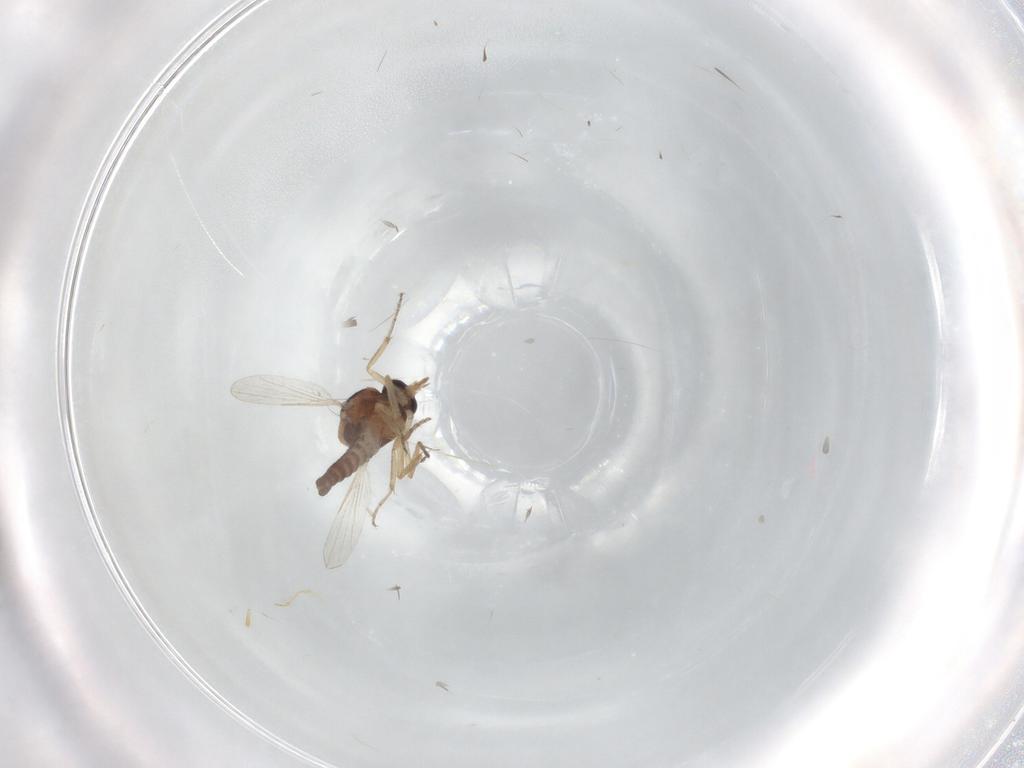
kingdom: Animalia
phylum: Arthropoda
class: Insecta
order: Diptera
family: Ceratopogonidae
